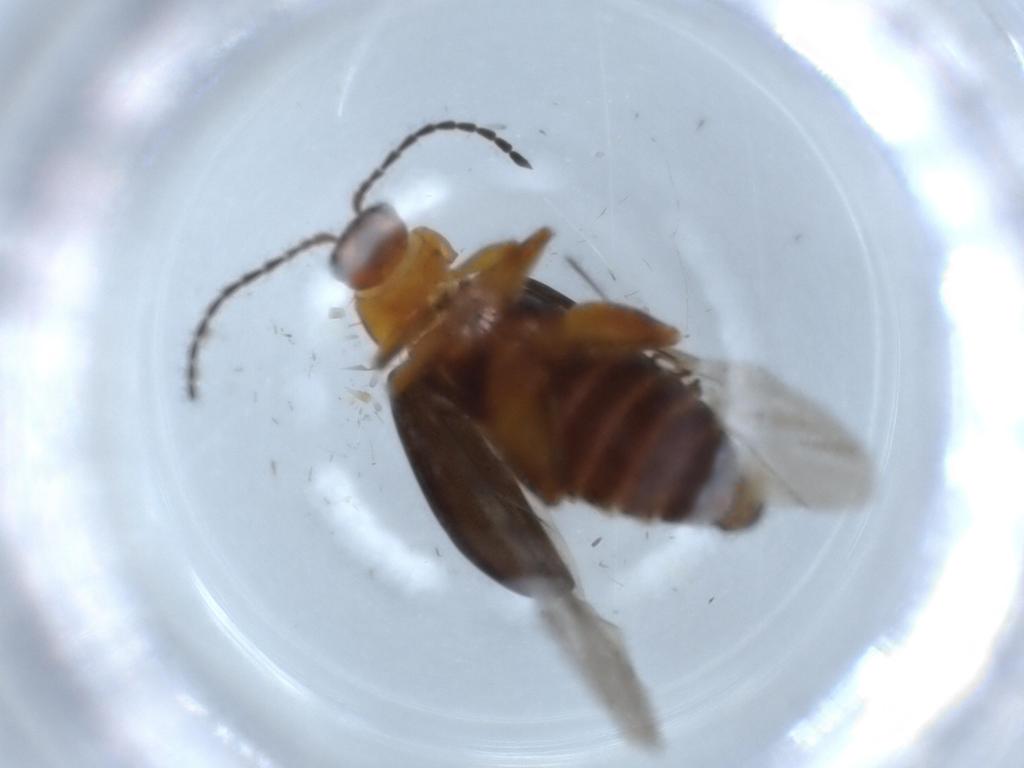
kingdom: Animalia
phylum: Arthropoda
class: Insecta
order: Coleoptera
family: Chrysomelidae
